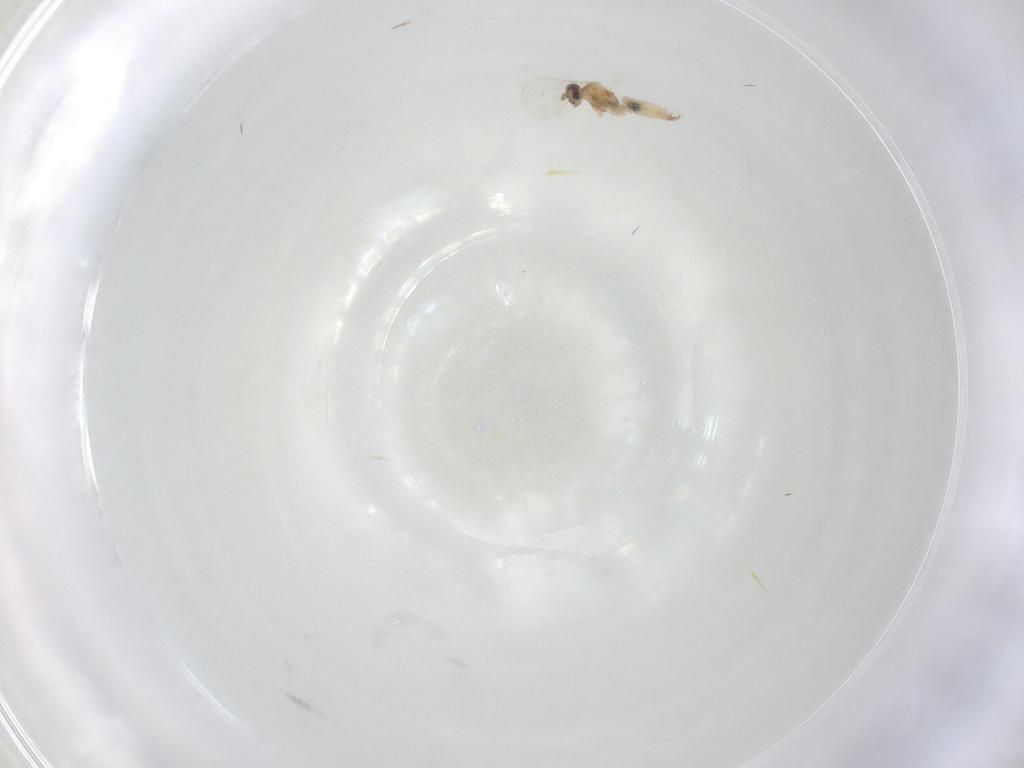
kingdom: Animalia
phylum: Arthropoda
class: Insecta
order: Diptera
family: Cecidomyiidae
